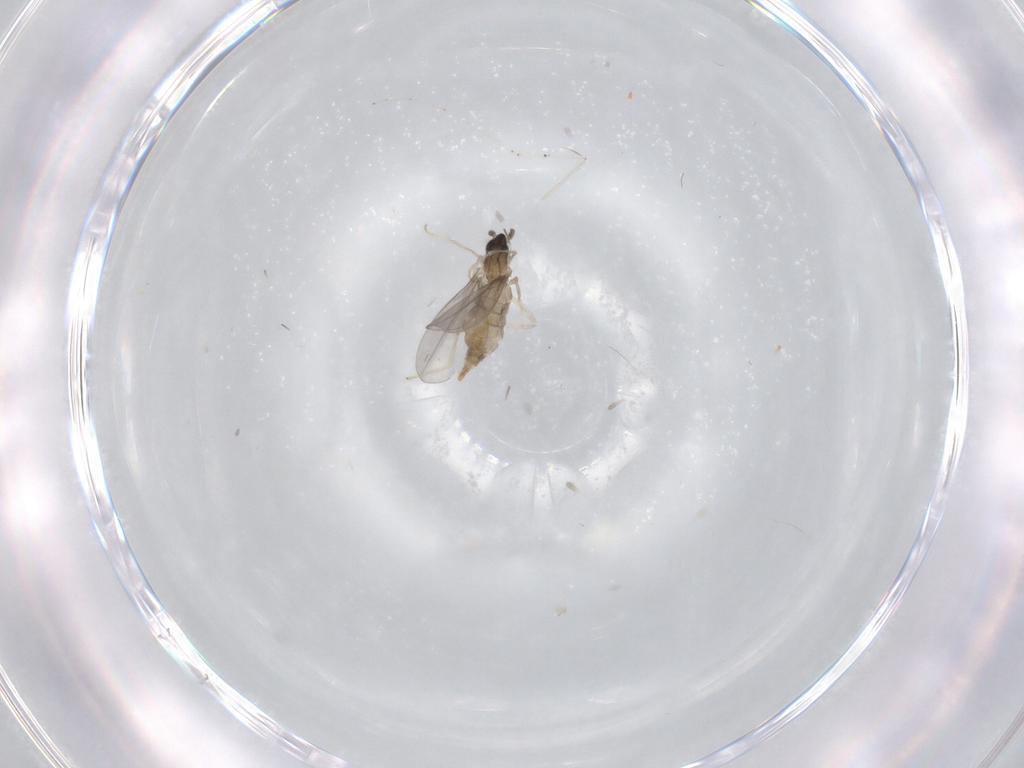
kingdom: Animalia
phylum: Arthropoda
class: Insecta
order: Diptera
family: Cecidomyiidae
